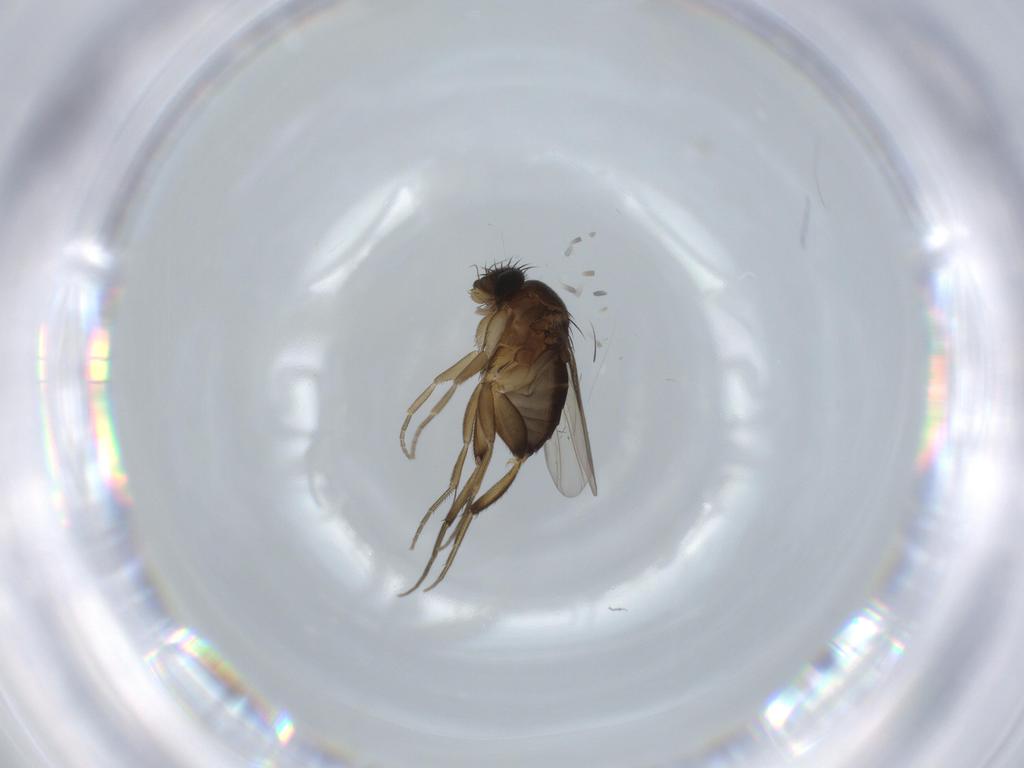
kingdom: Animalia
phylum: Arthropoda
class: Insecta
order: Diptera
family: Phoridae
